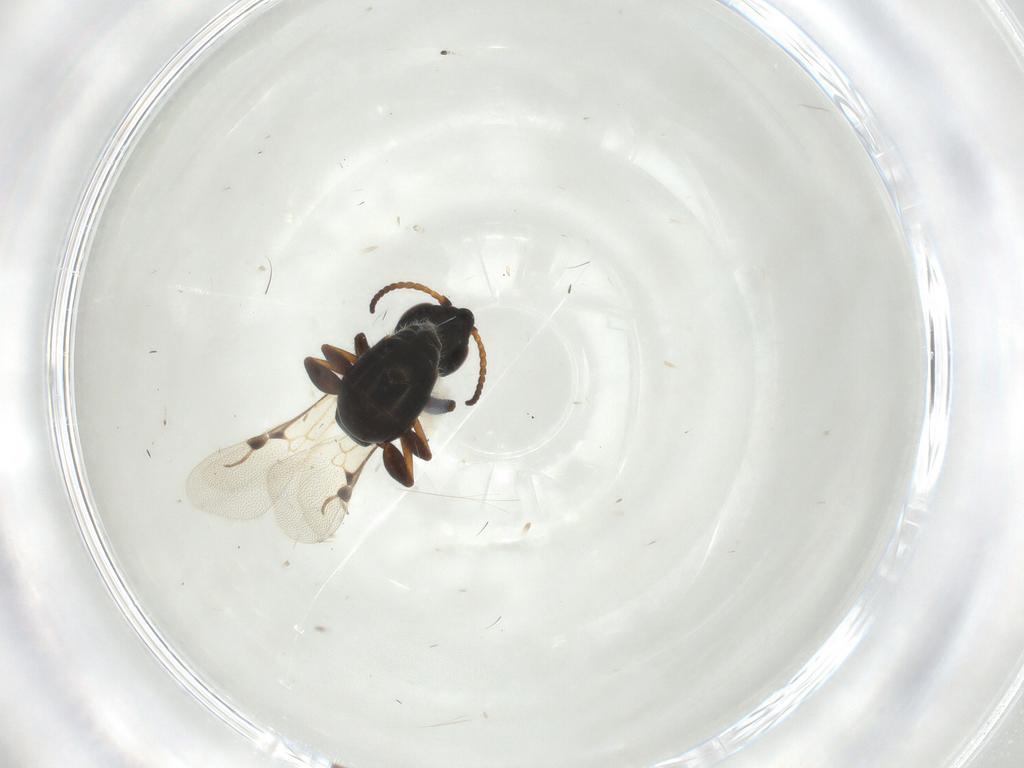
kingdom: Animalia
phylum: Arthropoda
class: Insecta
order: Hymenoptera
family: Bethylidae
